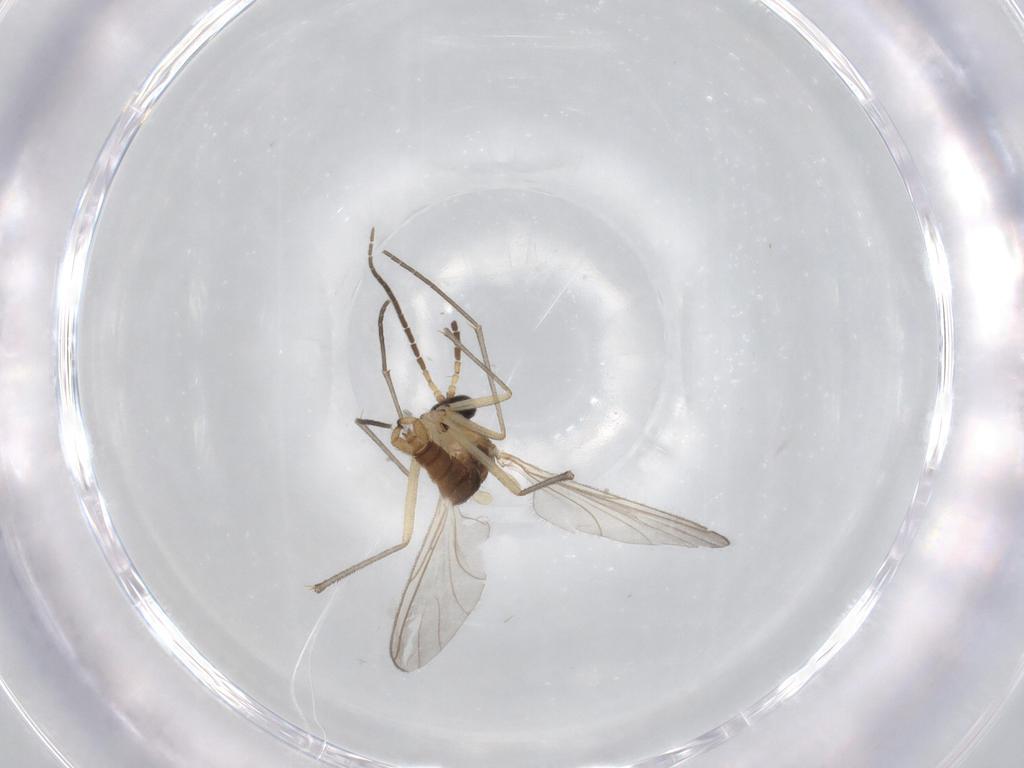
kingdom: Animalia
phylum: Arthropoda
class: Insecta
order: Diptera
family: Sciaridae
